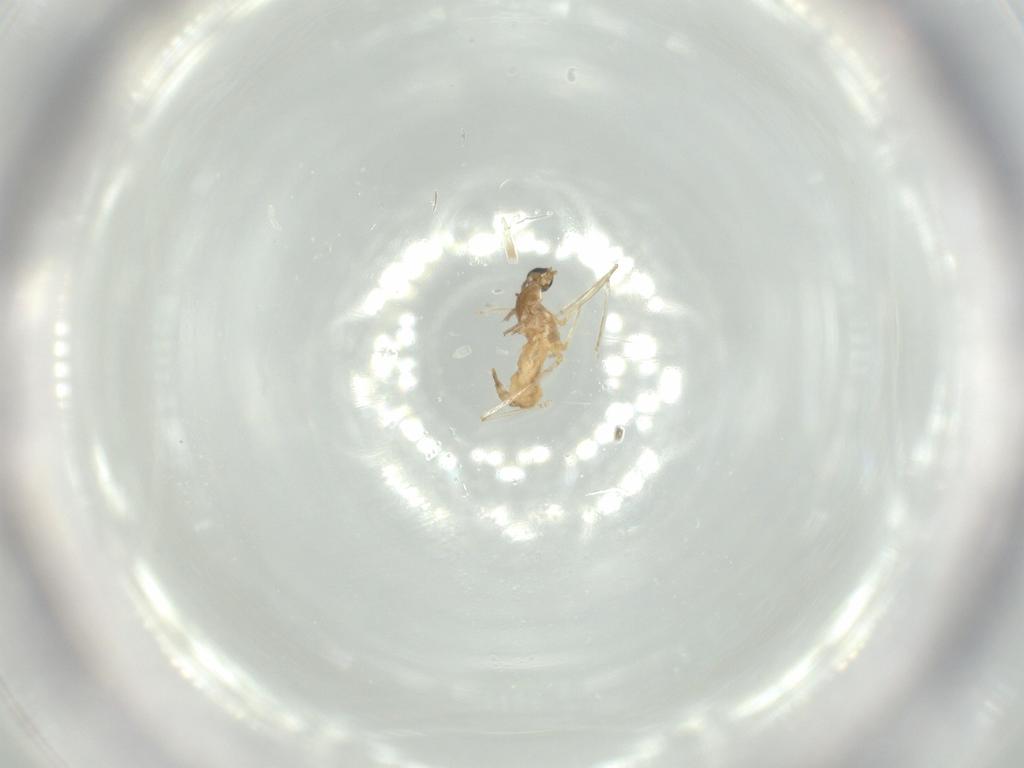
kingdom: Animalia
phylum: Arthropoda
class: Insecta
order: Diptera
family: Cecidomyiidae
